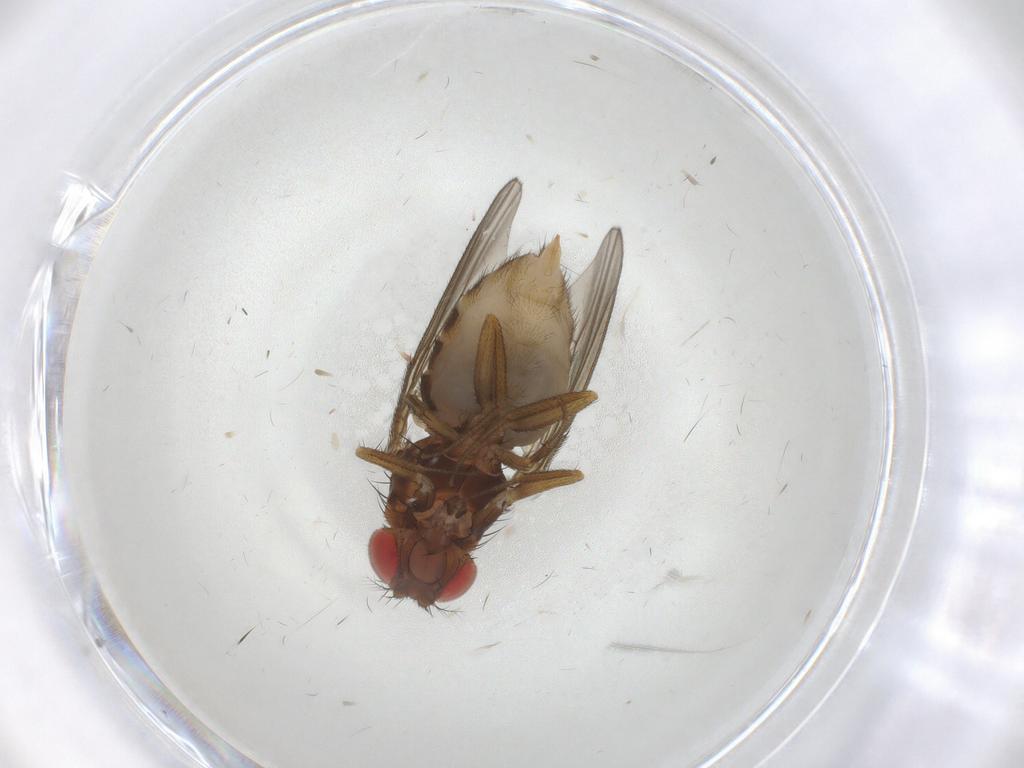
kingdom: Animalia
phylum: Arthropoda
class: Insecta
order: Diptera
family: Drosophilidae
